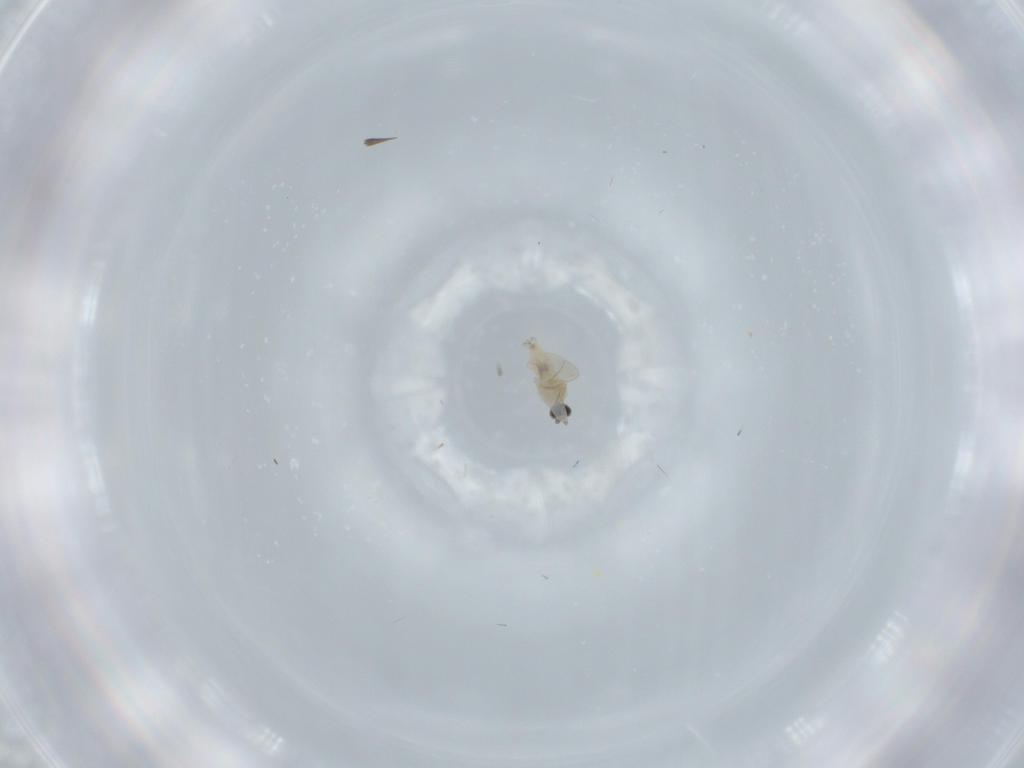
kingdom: Animalia
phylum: Arthropoda
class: Insecta
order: Diptera
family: Cecidomyiidae
